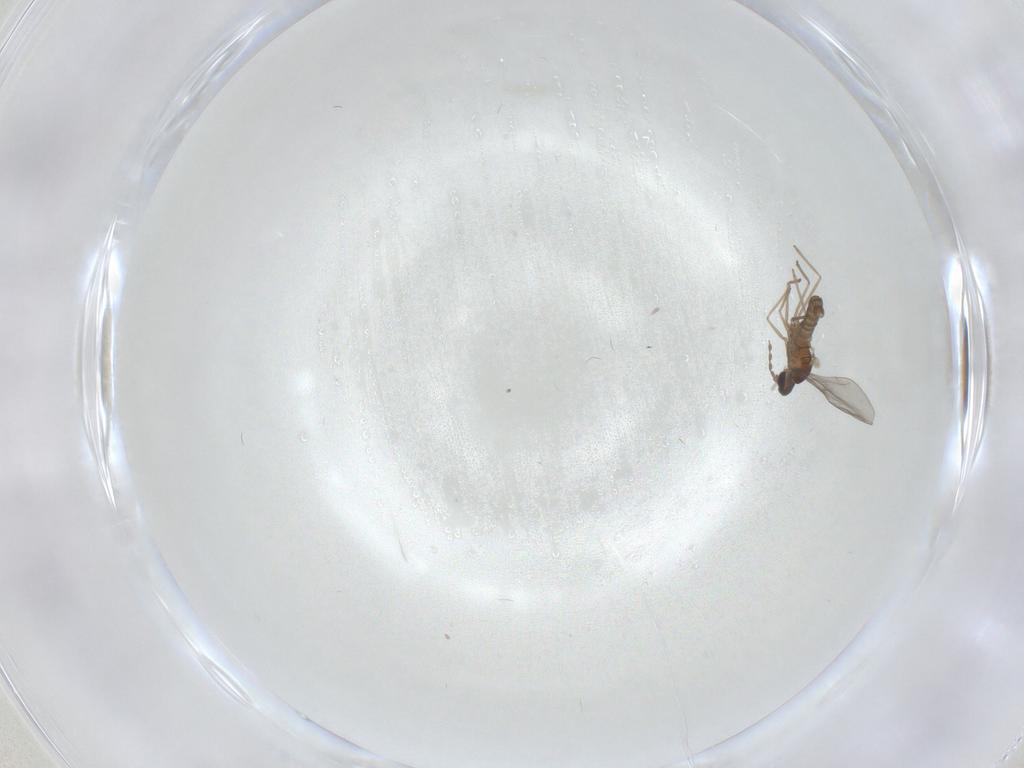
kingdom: Animalia
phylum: Arthropoda
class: Insecta
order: Diptera
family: Cecidomyiidae
